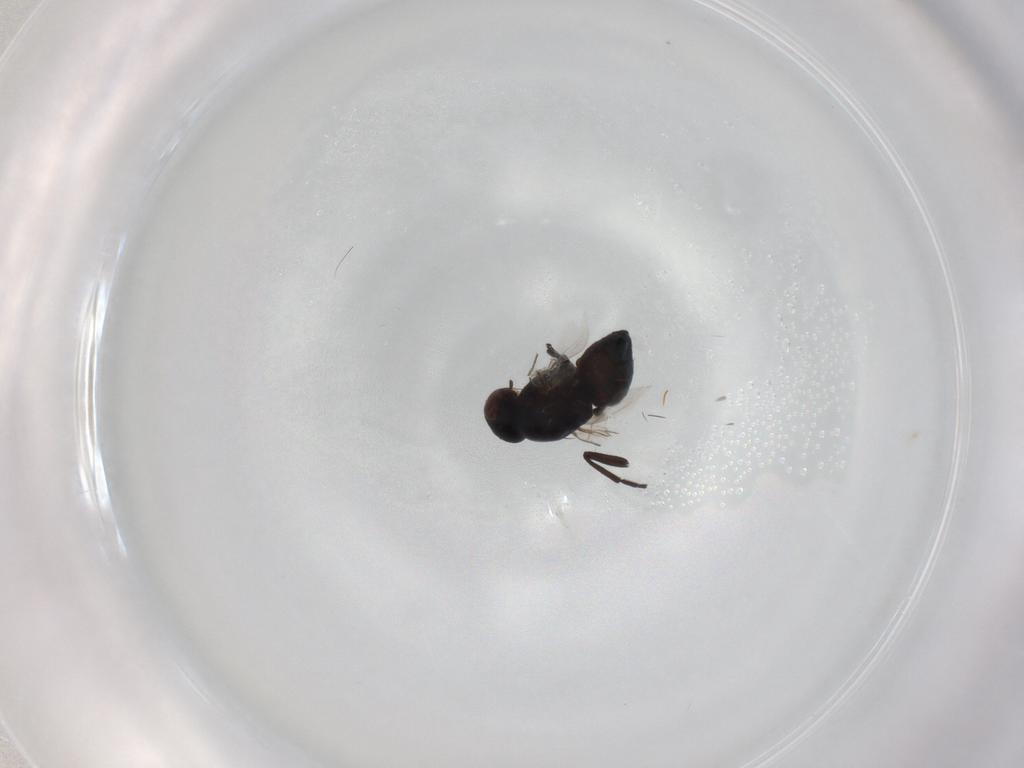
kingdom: Animalia
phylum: Arthropoda
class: Insecta
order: Diptera
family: Agromyzidae
